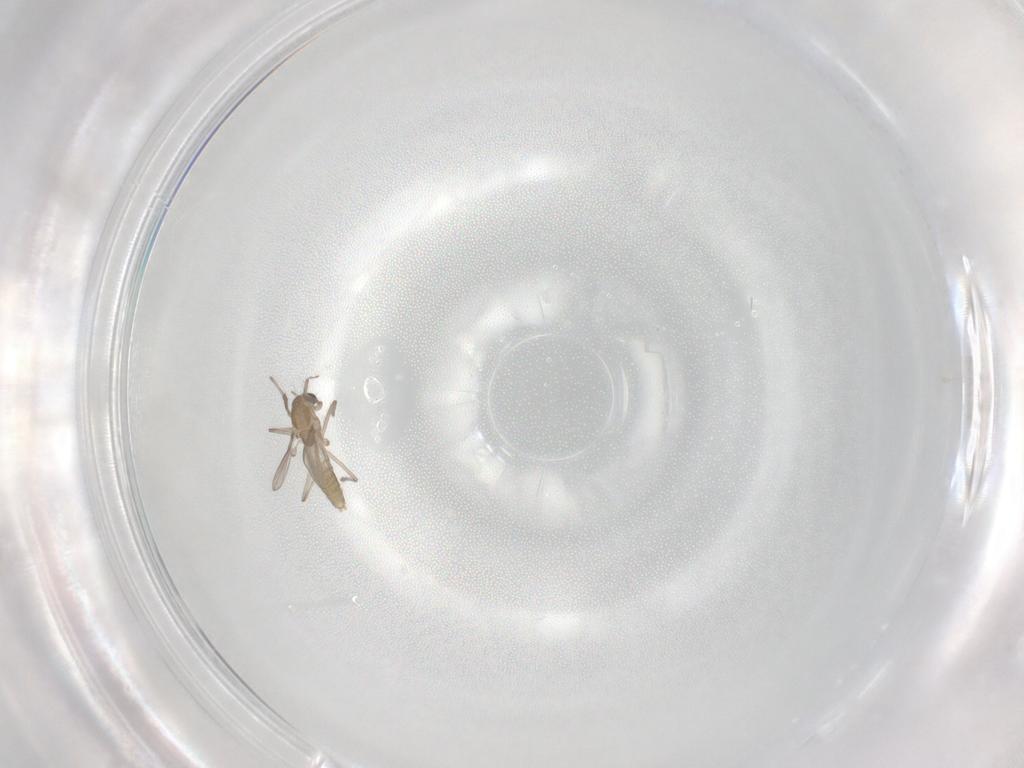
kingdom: Animalia
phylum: Arthropoda
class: Insecta
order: Diptera
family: Chironomidae
